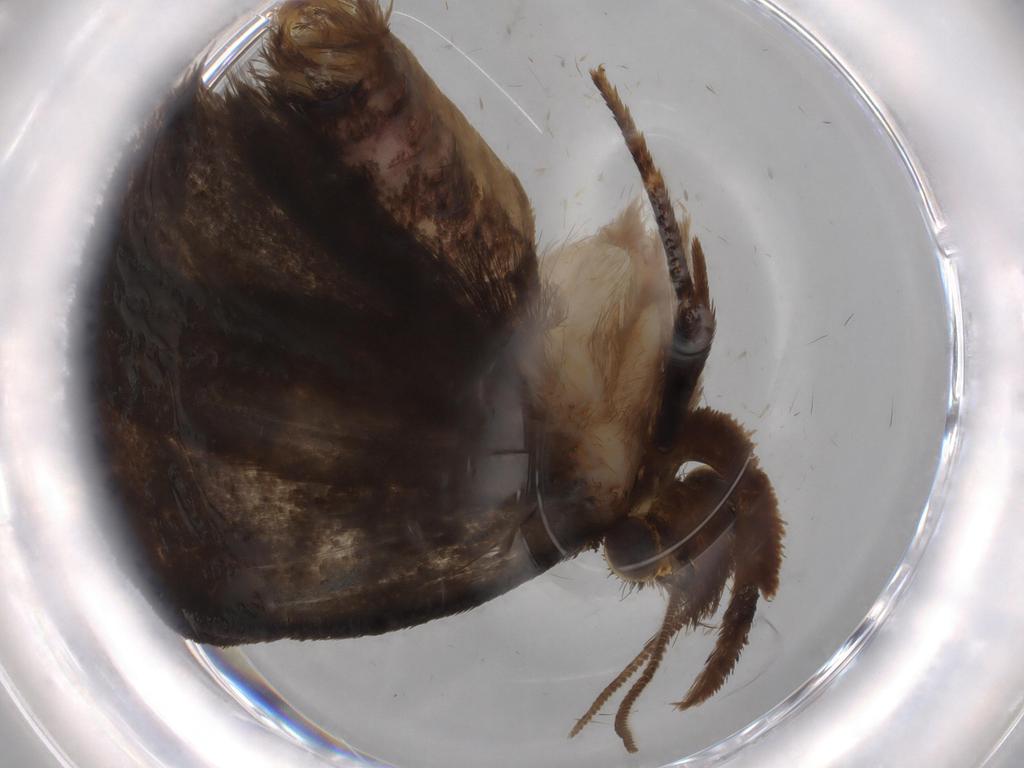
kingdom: Animalia
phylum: Arthropoda
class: Insecta
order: Lepidoptera
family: Tineidae
